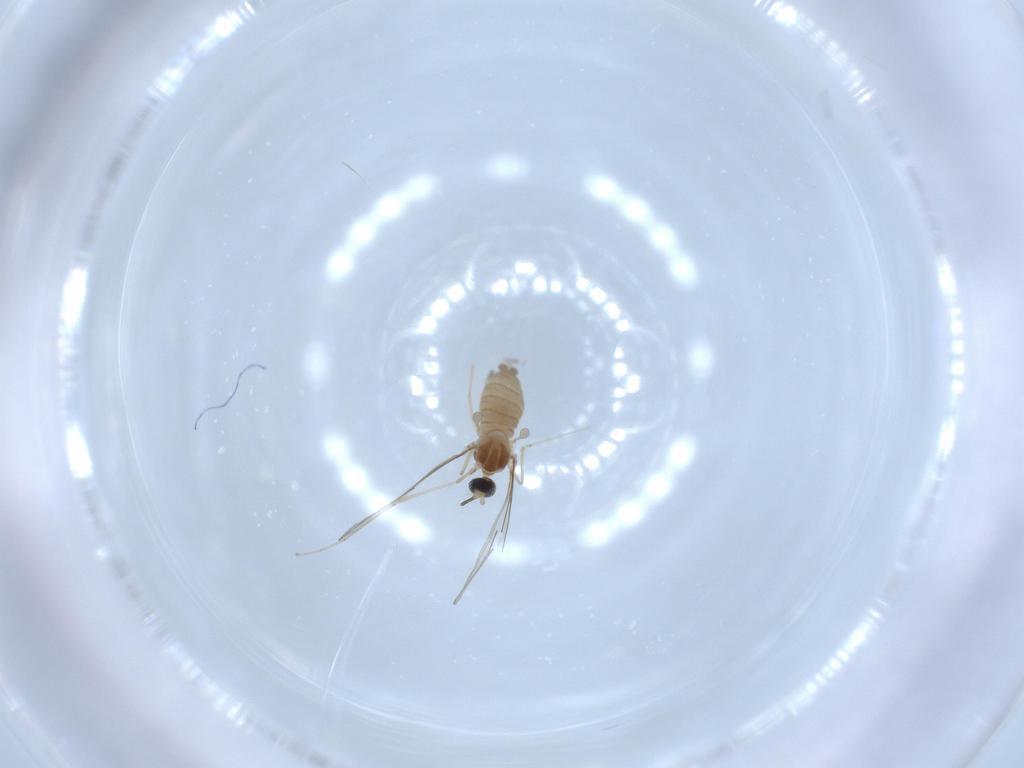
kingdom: Animalia
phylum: Arthropoda
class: Insecta
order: Diptera
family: Cecidomyiidae
